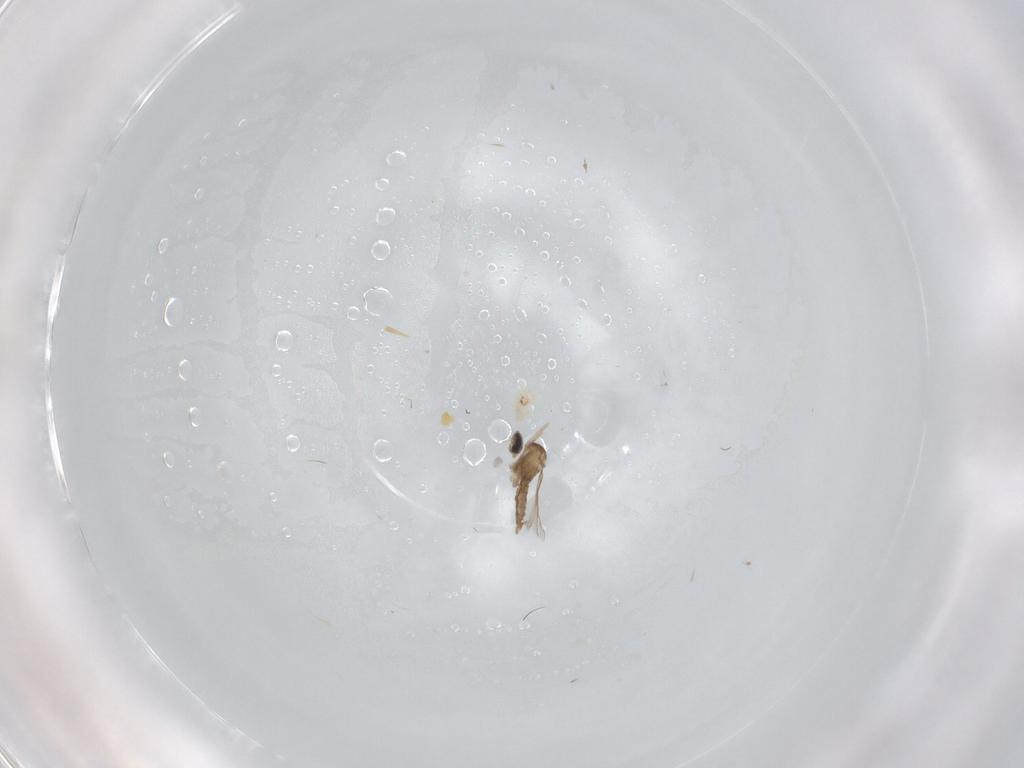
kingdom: Animalia
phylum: Arthropoda
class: Insecta
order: Diptera
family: Cecidomyiidae
